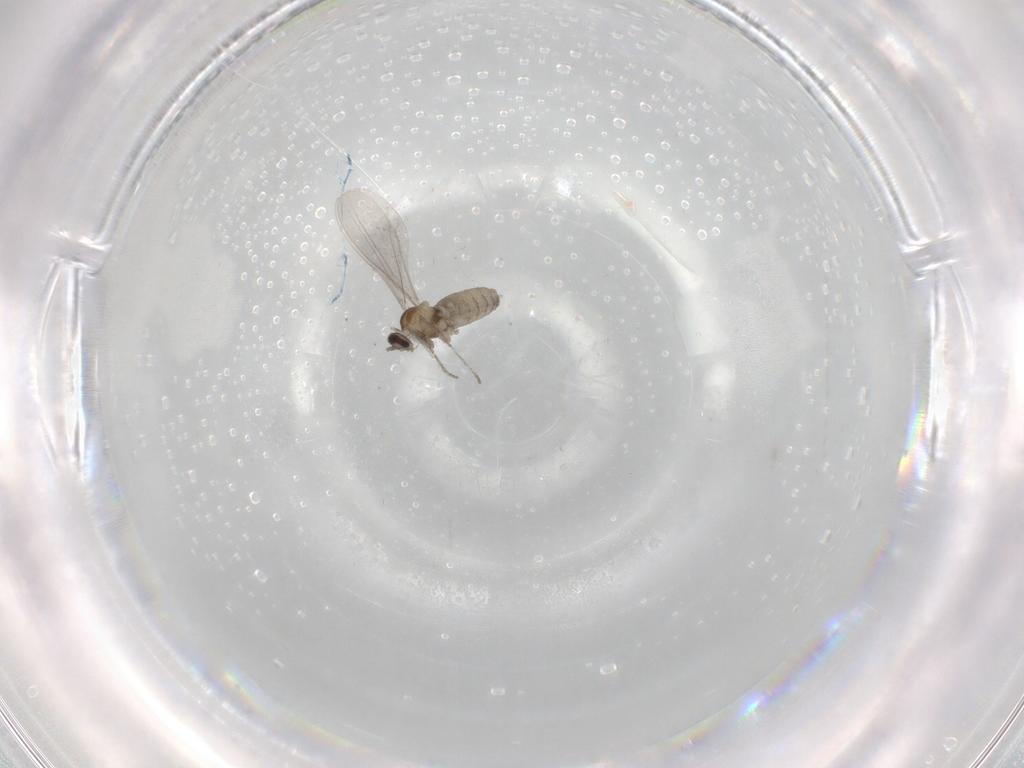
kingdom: Animalia
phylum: Arthropoda
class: Insecta
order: Diptera
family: Cecidomyiidae
